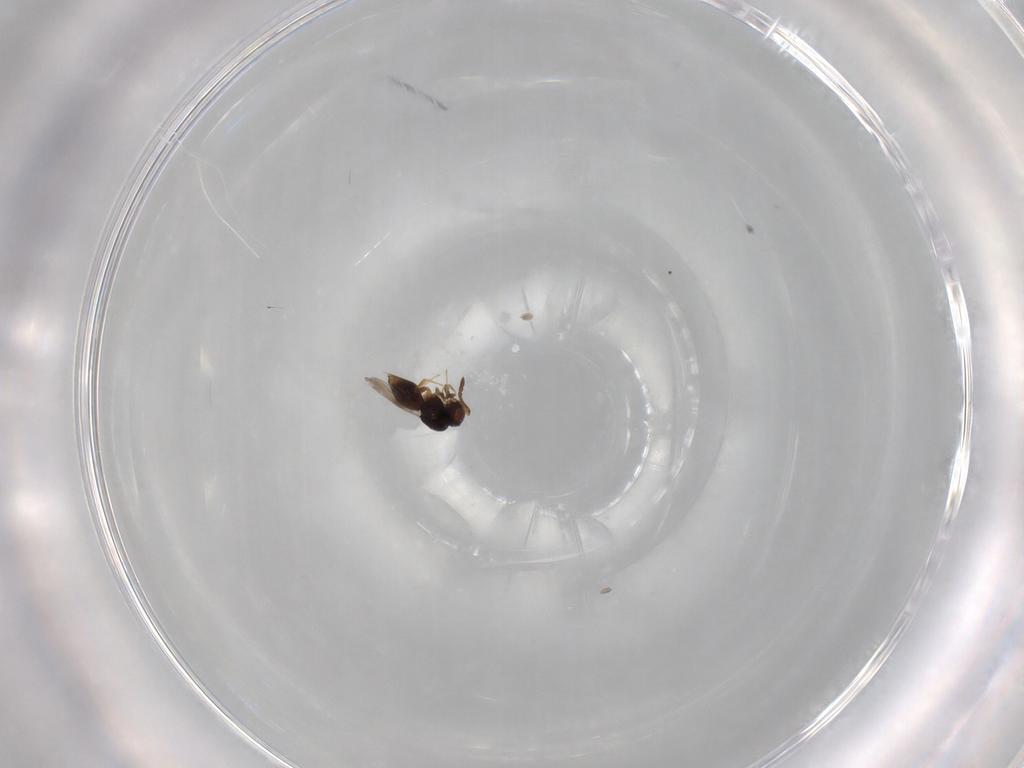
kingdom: Animalia
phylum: Arthropoda
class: Insecta
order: Hymenoptera
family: Ceraphronidae
